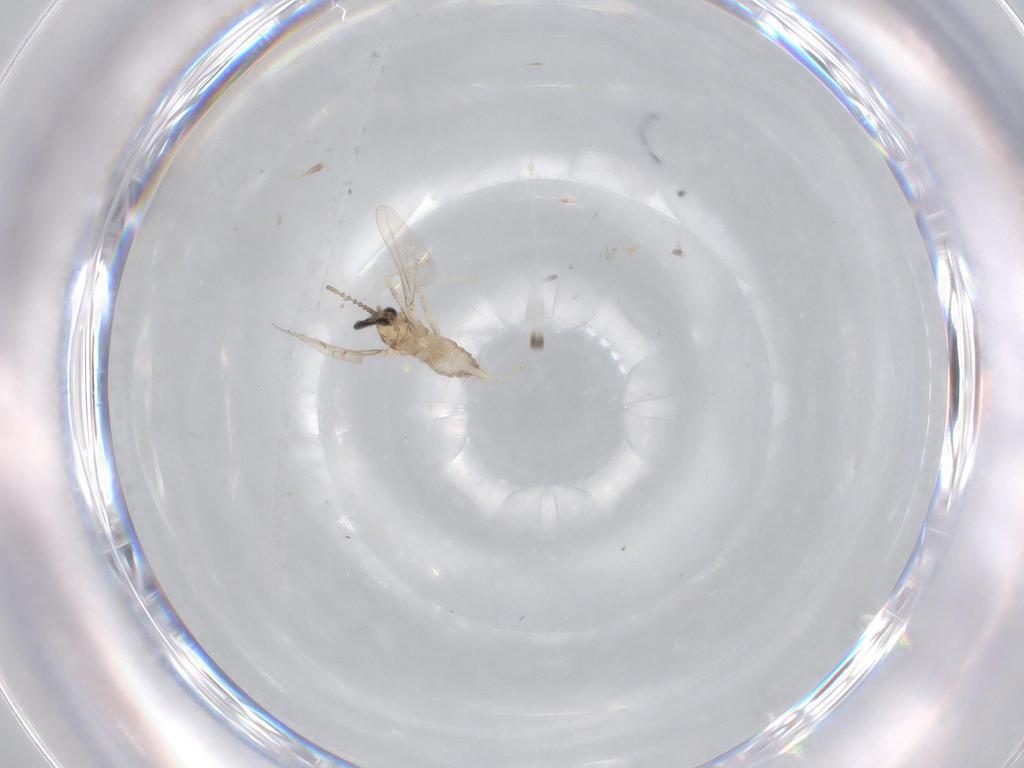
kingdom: Animalia
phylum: Arthropoda
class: Insecta
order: Diptera
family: Cecidomyiidae
